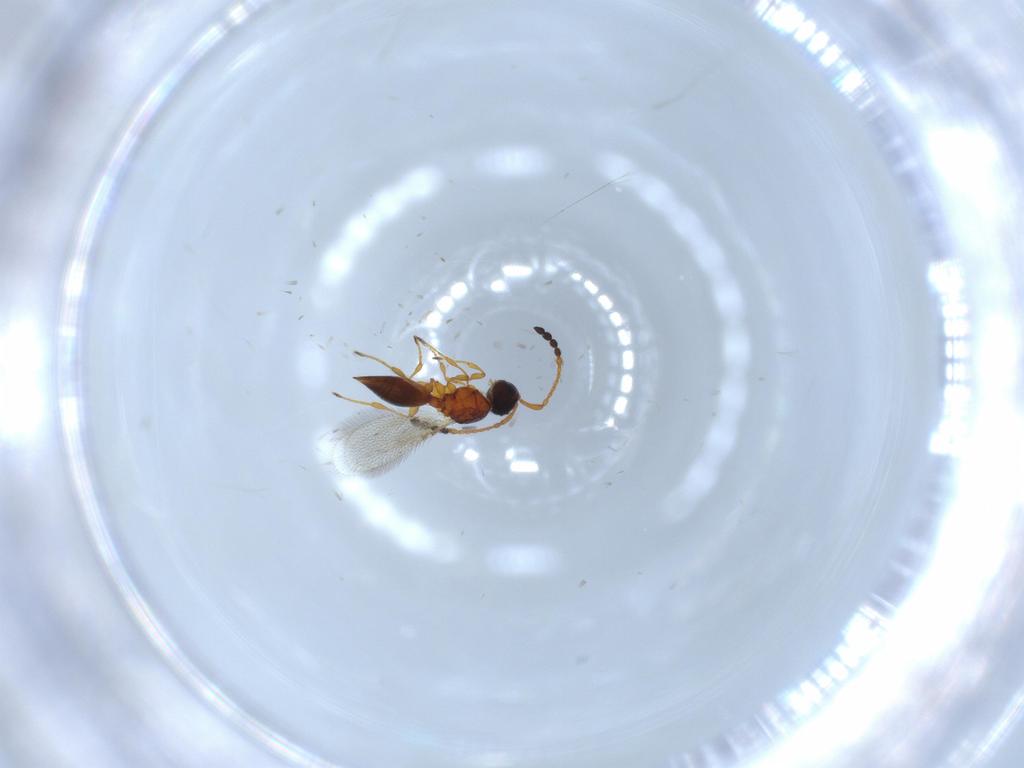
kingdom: Animalia
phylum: Arthropoda
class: Insecta
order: Hymenoptera
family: Diapriidae
